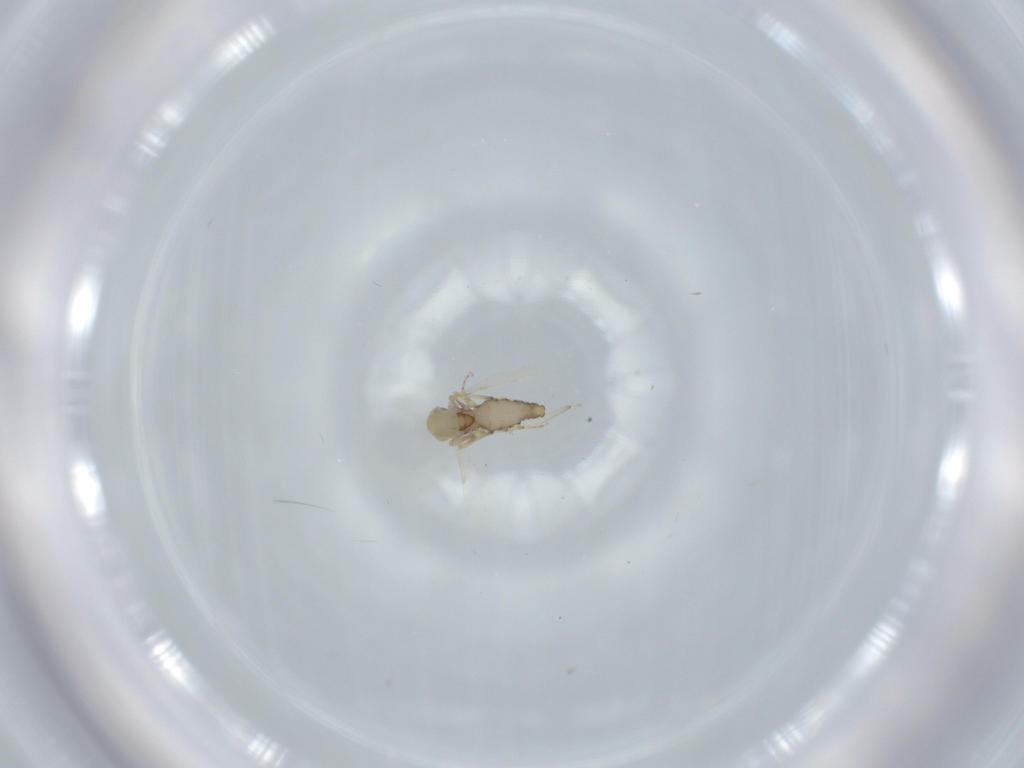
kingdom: Animalia
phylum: Arthropoda
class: Insecta
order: Diptera
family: Ceratopogonidae
